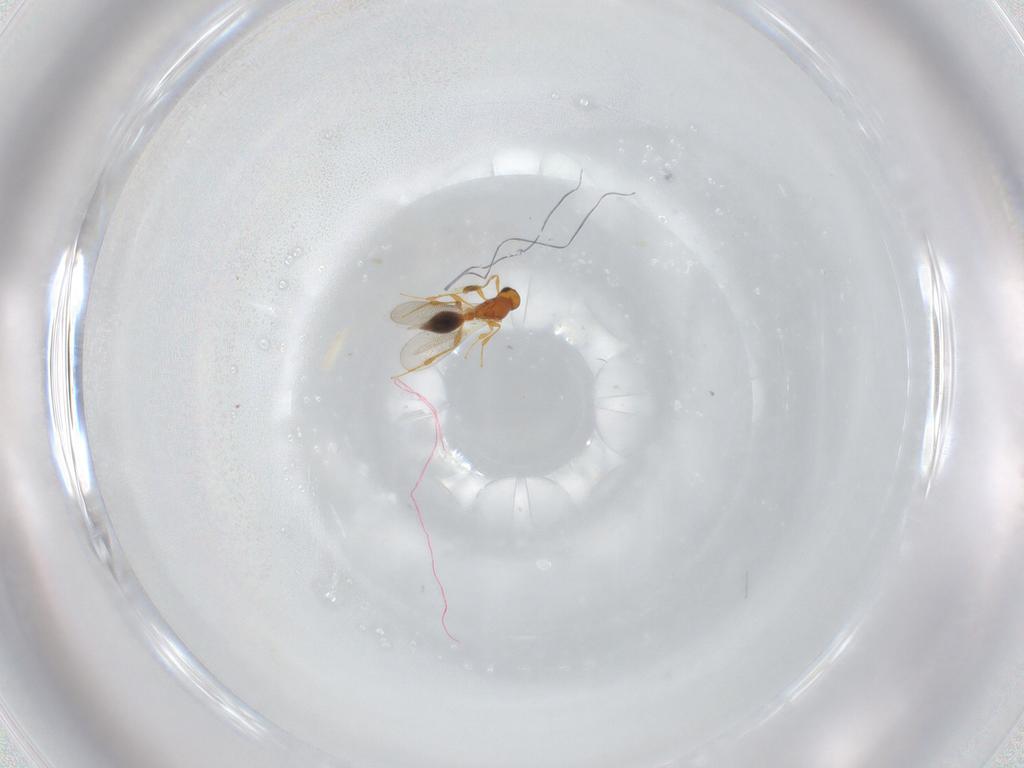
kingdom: Animalia
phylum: Arthropoda
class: Insecta
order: Hymenoptera
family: Platygastridae
